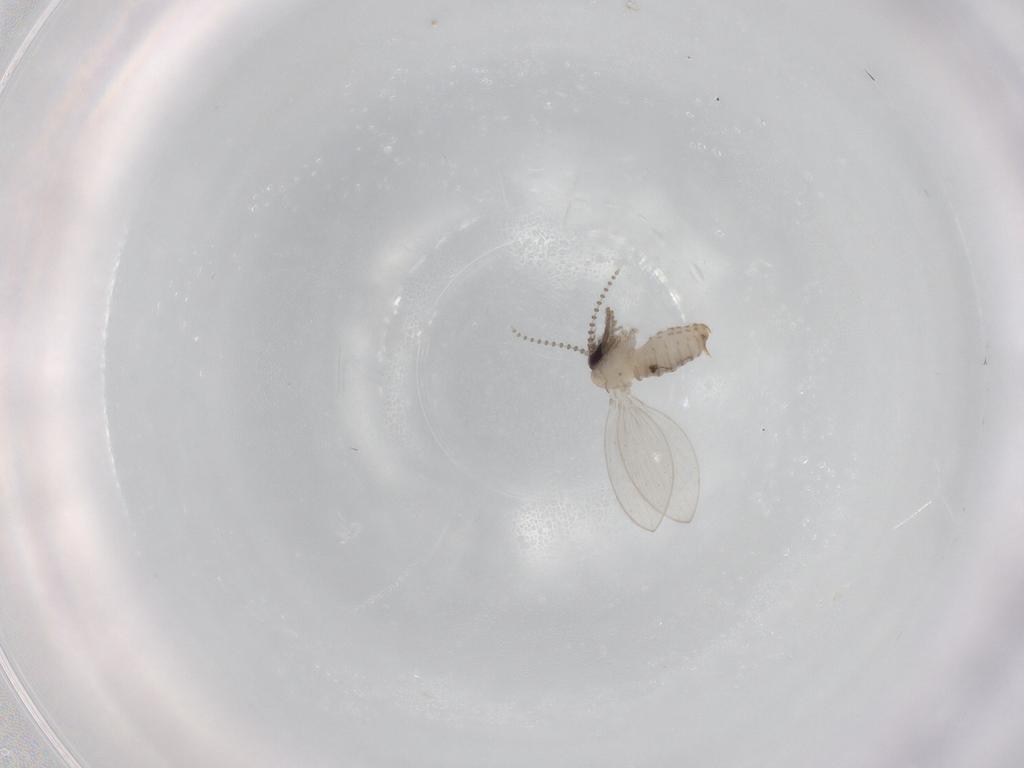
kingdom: Animalia
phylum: Arthropoda
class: Insecta
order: Diptera
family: Psychodidae
